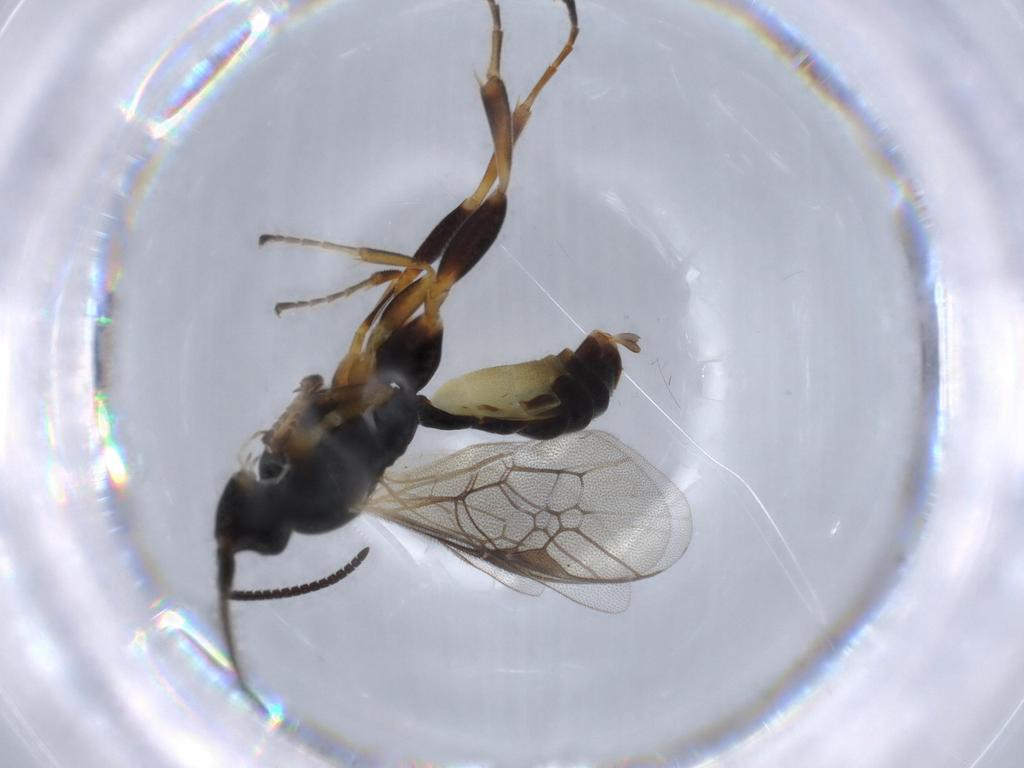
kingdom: Animalia
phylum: Arthropoda
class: Insecta
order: Hymenoptera
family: Ichneumonidae
